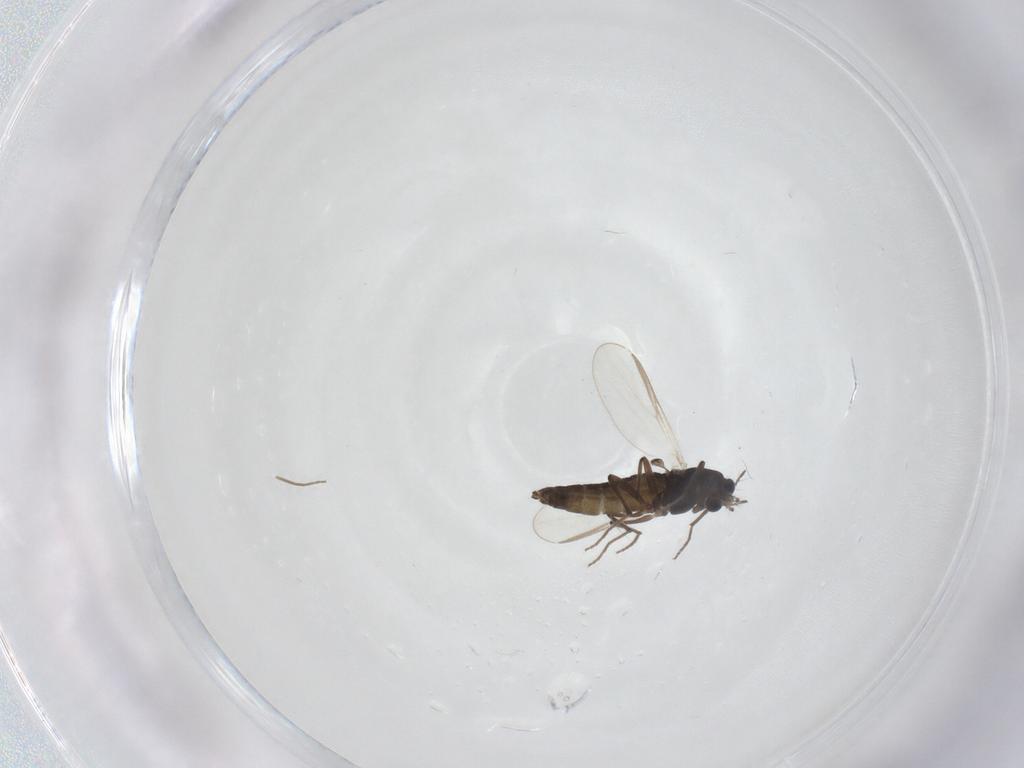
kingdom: Animalia
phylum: Arthropoda
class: Insecta
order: Diptera
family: Chironomidae
